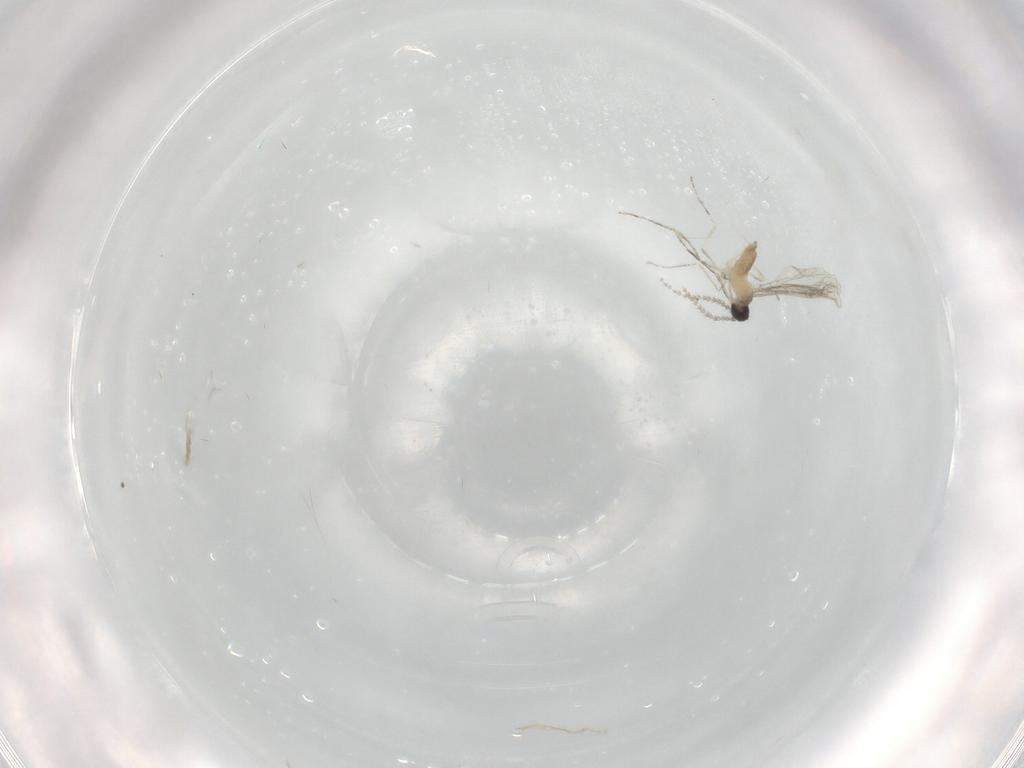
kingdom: Animalia
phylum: Arthropoda
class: Insecta
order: Diptera
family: Cecidomyiidae
